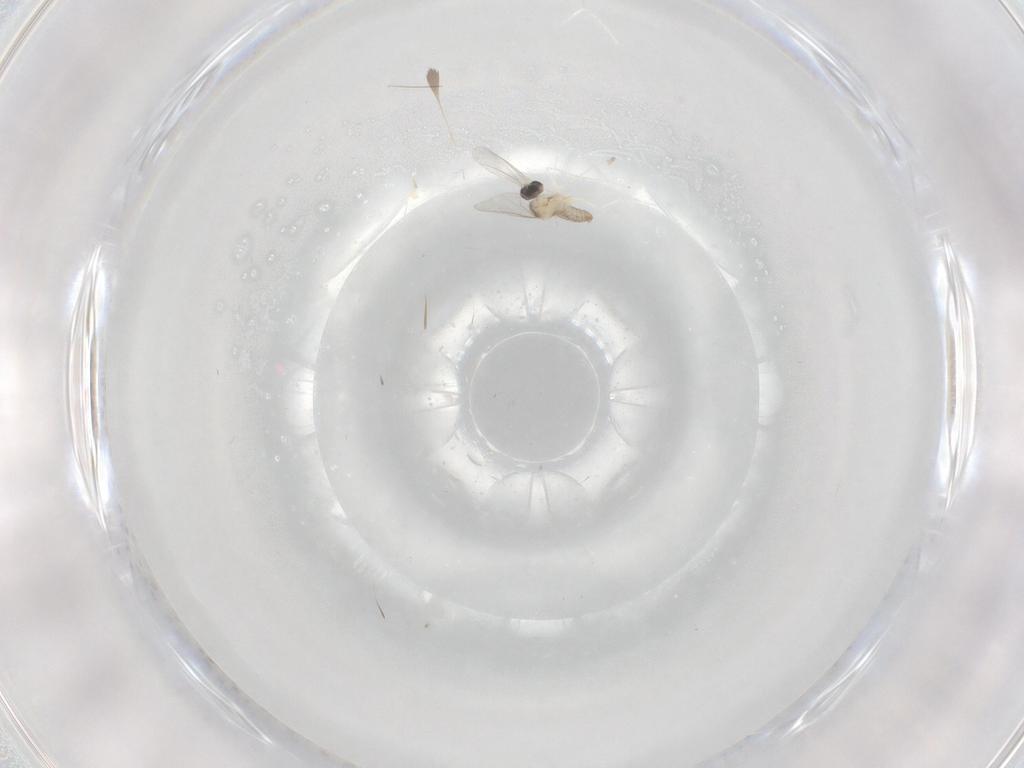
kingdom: Animalia
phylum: Arthropoda
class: Insecta
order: Diptera
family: Cecidomyiidae
